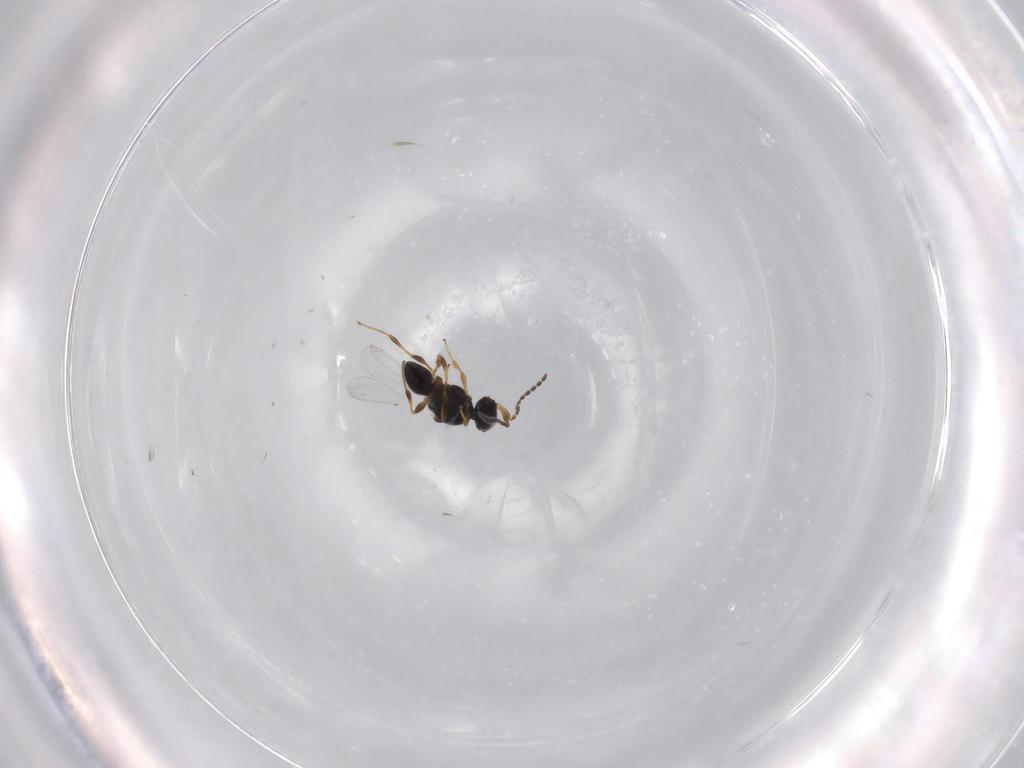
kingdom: Animalia
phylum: Arthropoda
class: Insecta
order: Hymenoptera
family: Platygastridae
